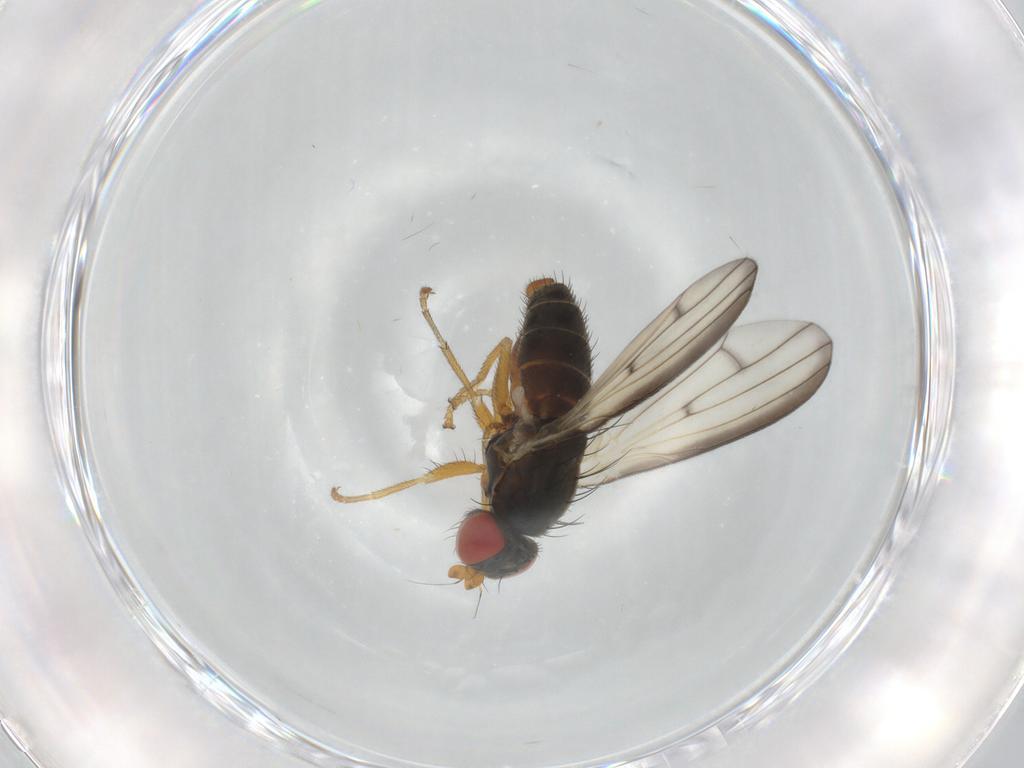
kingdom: Animalia
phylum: Arthropoda
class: Insecta
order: Diptera
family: Chamaemyiidae
